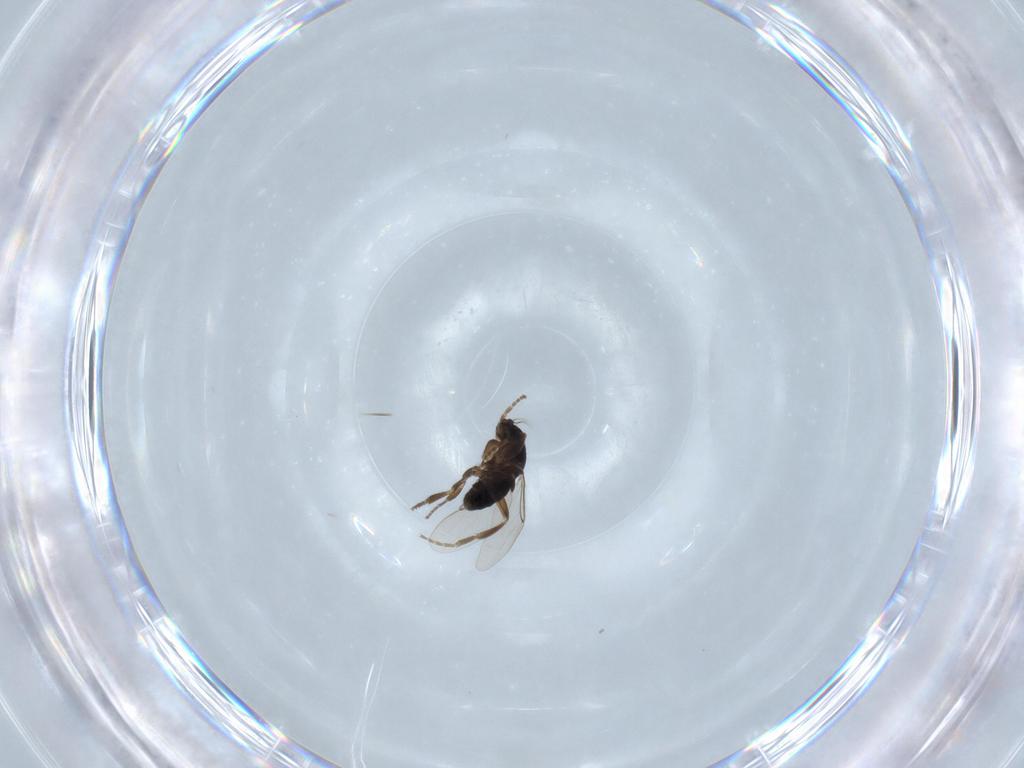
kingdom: Animalia
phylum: Arthropoda
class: Insecta
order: Diptera
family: Phoridae
